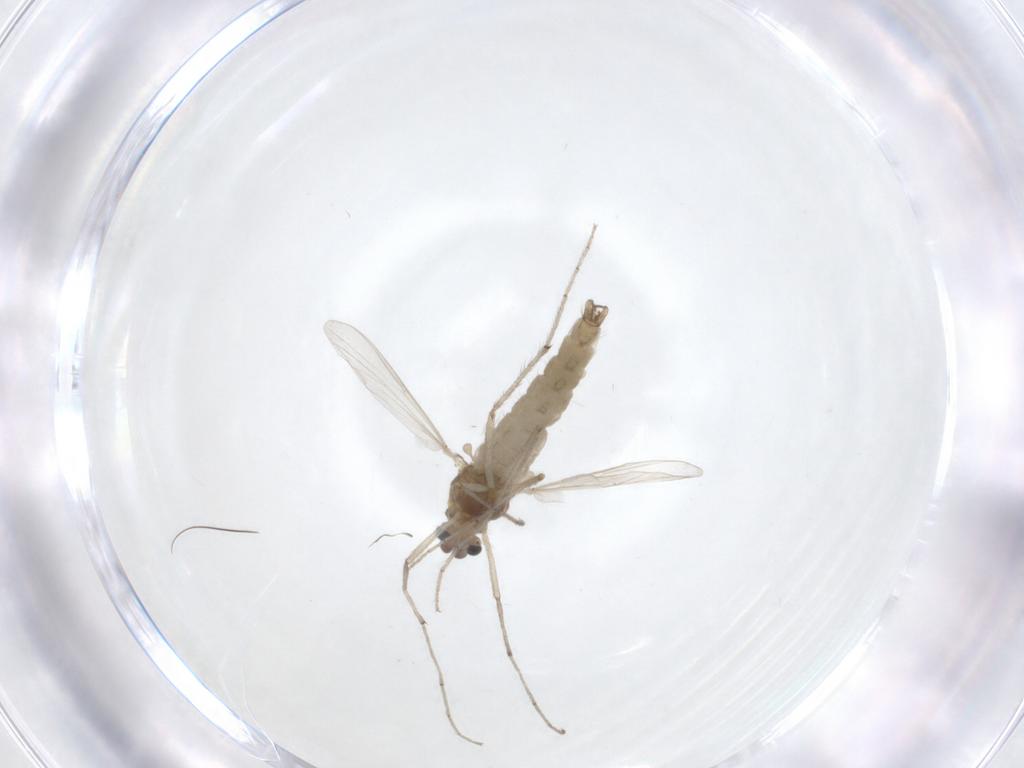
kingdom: Animalia
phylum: Arthropoda
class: Insecta
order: Diptera
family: Chironomidae
